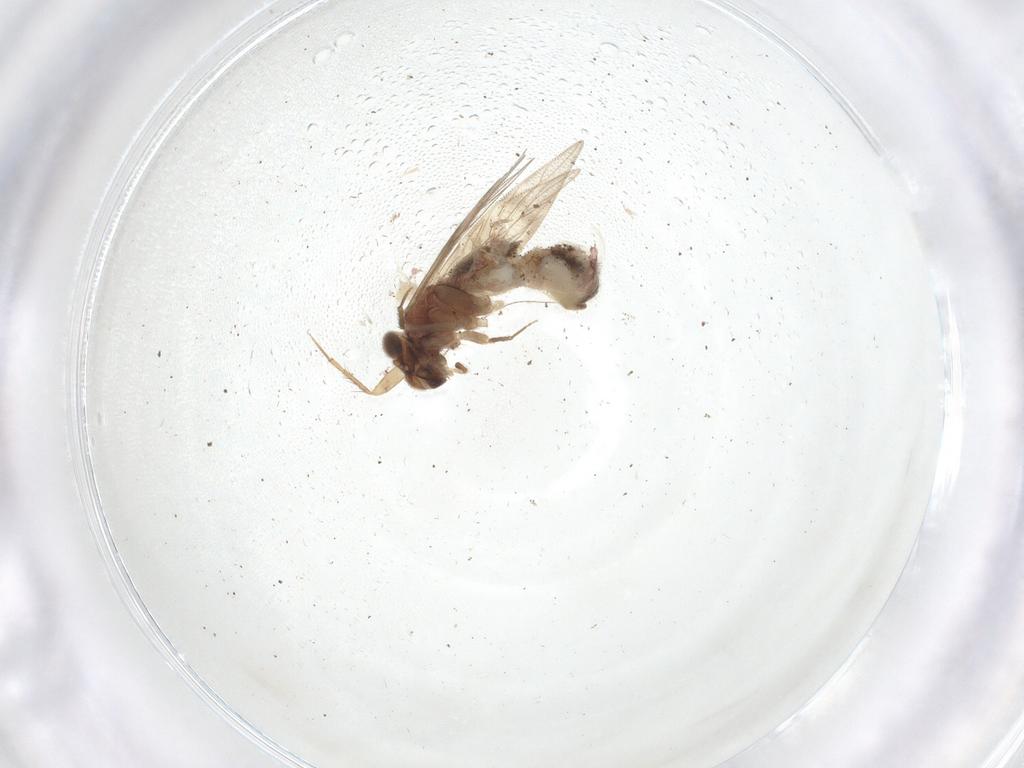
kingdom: Animalia
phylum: Arthropoda
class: Insecta
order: Psocodea
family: Lepidopsocidae
